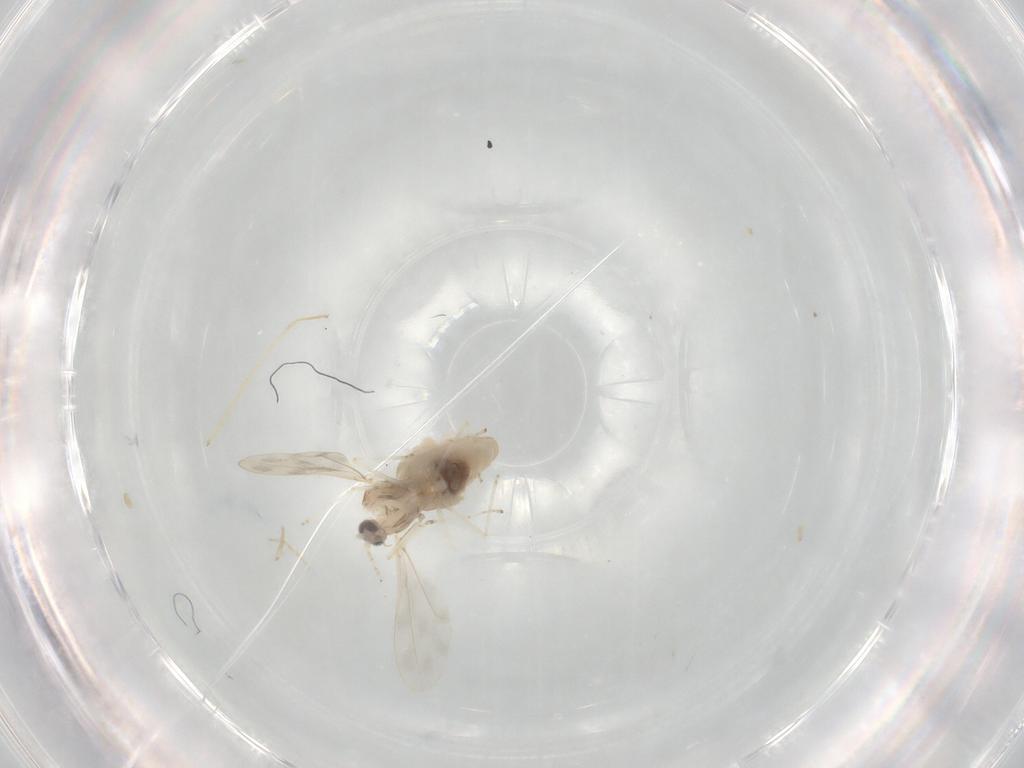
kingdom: Animalia
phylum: Arthropoda
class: Insecta
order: Diptera
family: Cecidomyiidae
